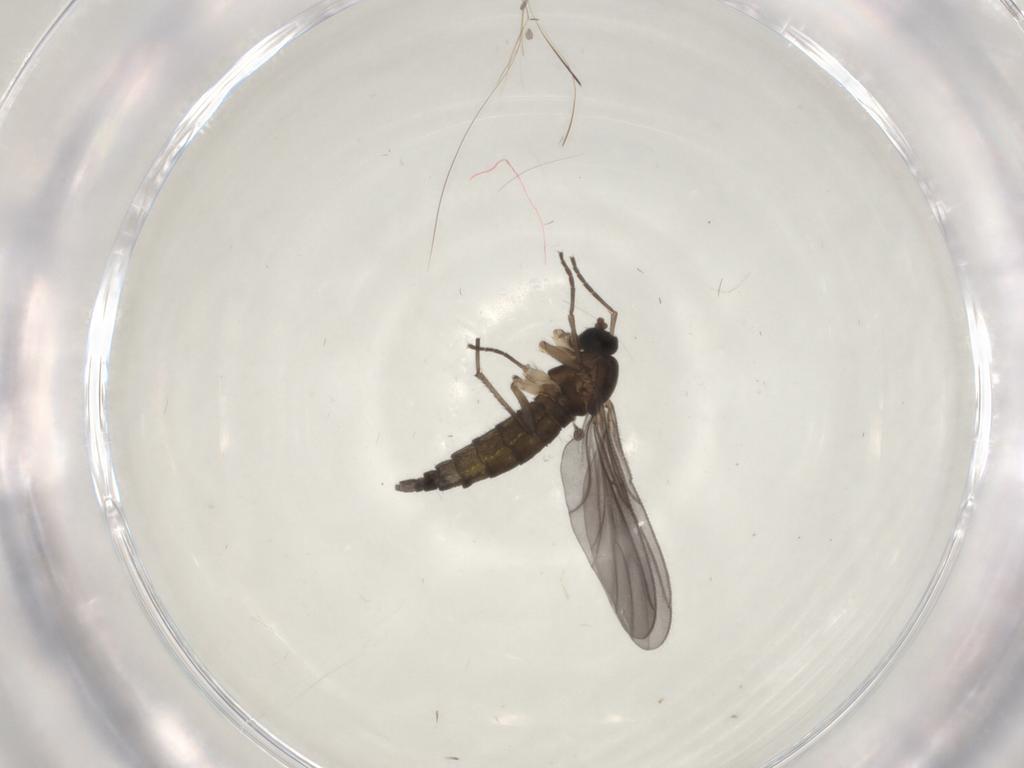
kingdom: Animalia
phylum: Arthropoda
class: Insecta
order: Diptera
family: Sciaridae
